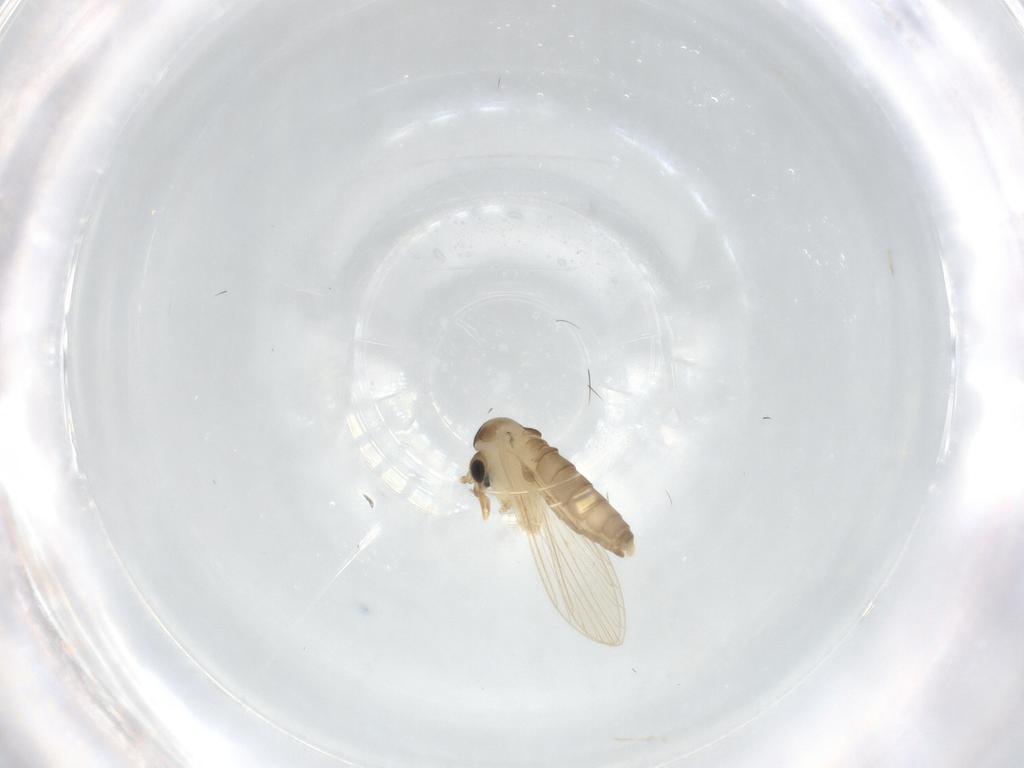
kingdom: Animalia
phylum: Arthropoda
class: Insecta
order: Diptera
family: Psychodidae
